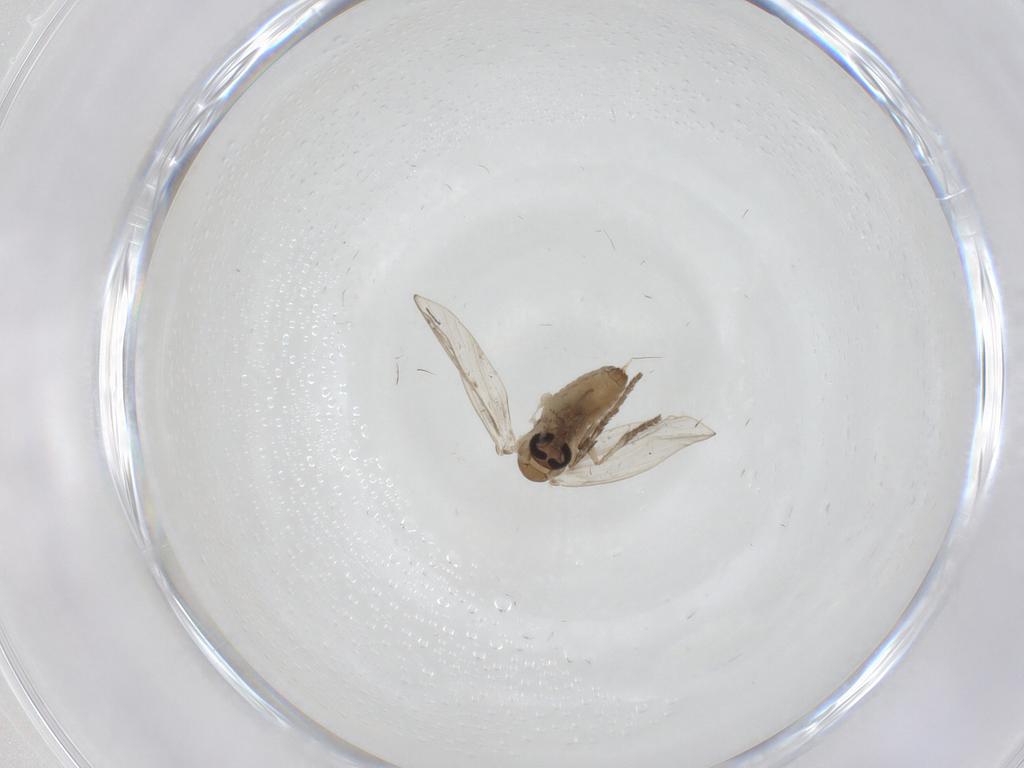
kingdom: Animalia
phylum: Arthropoda
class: Insecta
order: Diptera
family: Psychodidae
